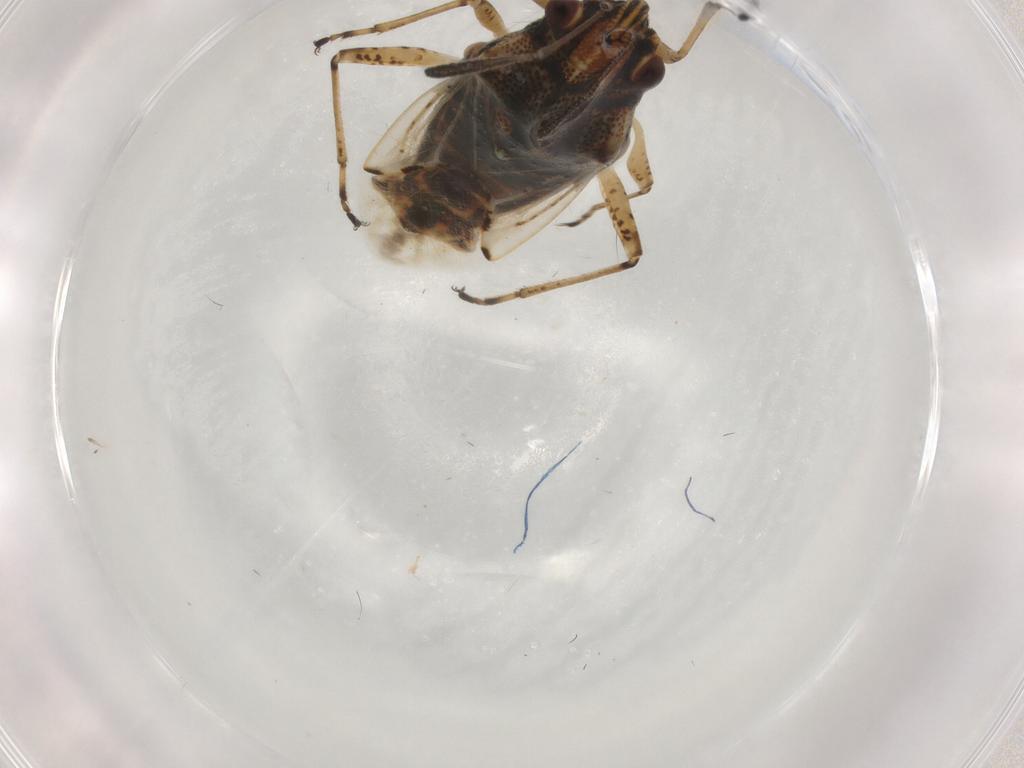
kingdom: Animalia
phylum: Arthropoda
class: Insecta
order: Hemiptera
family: Lygaeidae
